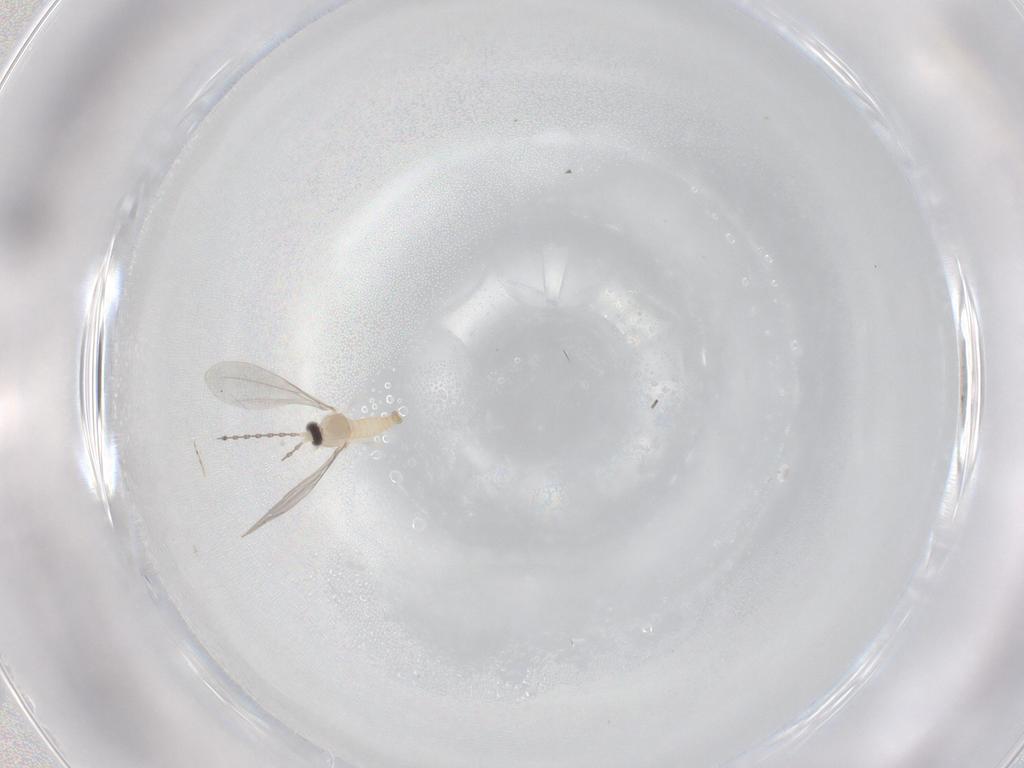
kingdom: Animalia
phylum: Arthropoda
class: Insecta
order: Diptera
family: Cecidomyiidae
